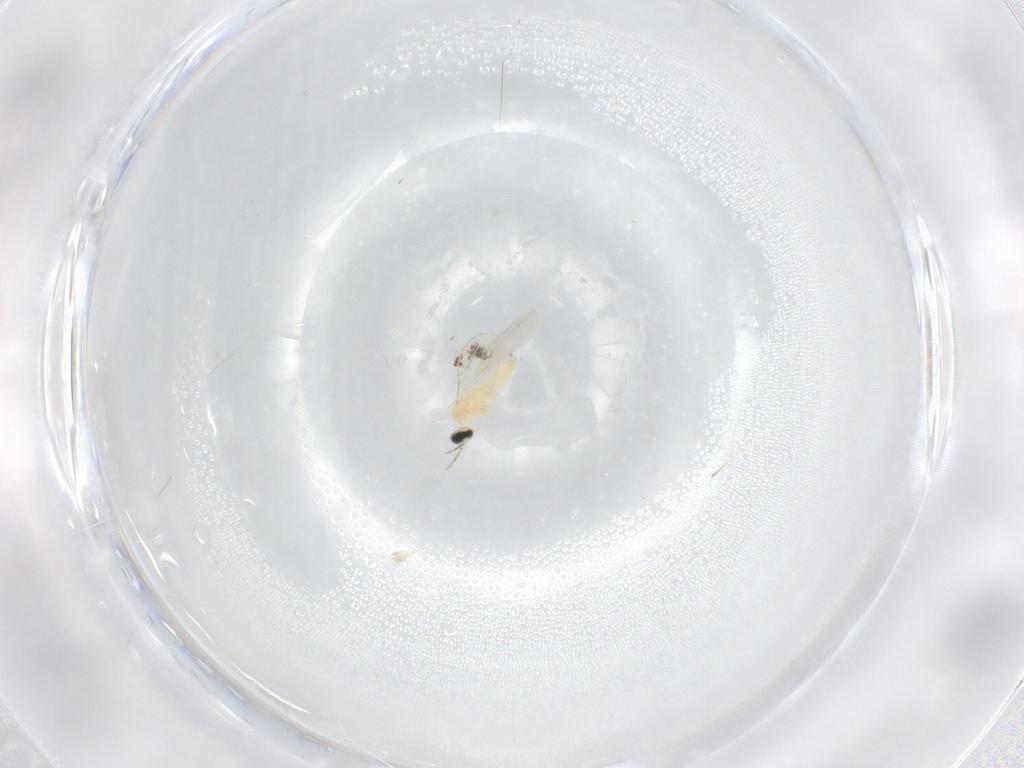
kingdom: Animalia
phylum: Arthropoda
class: Insecta
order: Diptera
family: Cecidomyiidae
